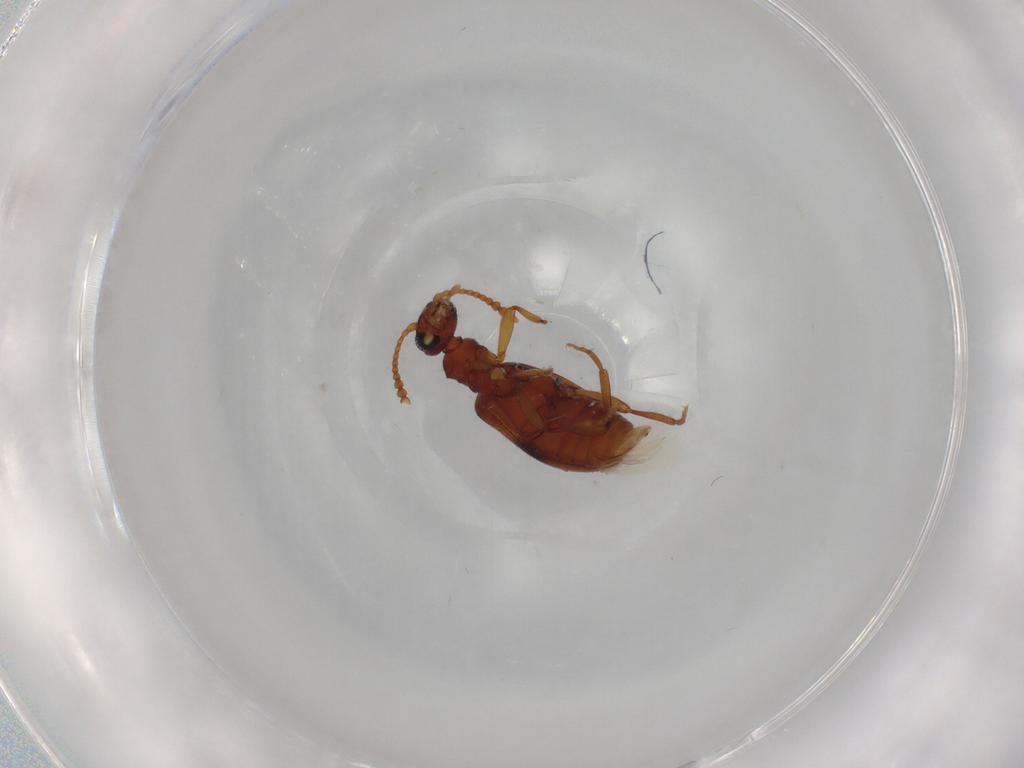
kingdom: Animalia
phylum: Arthropoda
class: Insecta
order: Coleoptera
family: Anthicidae
